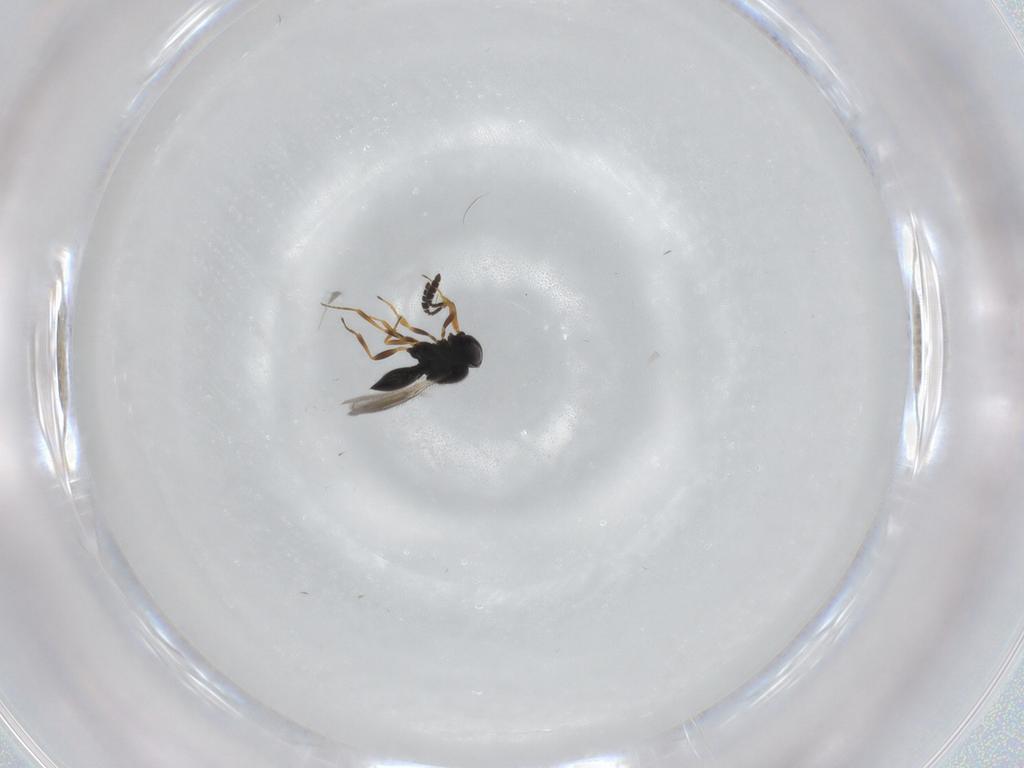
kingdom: Animalia
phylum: Arthropoda
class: Insecta
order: Hymenoptera
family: Scelionidae
